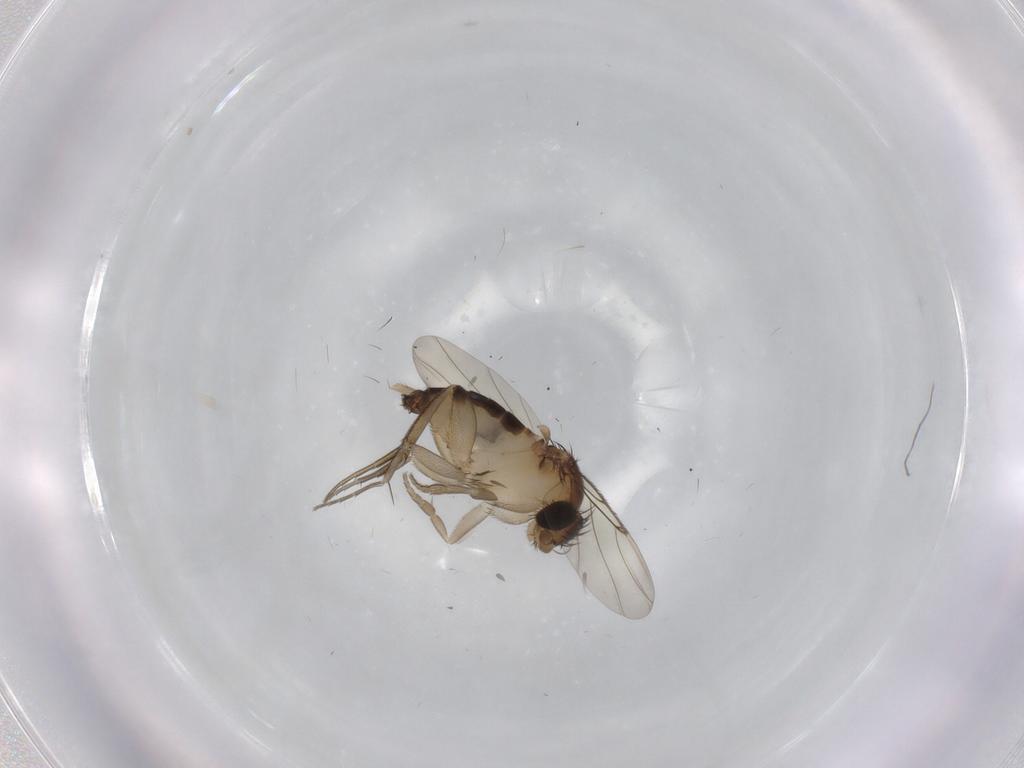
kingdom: Animalia
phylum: Arthropoda
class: Insecta
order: Diptera
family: Phoridae
